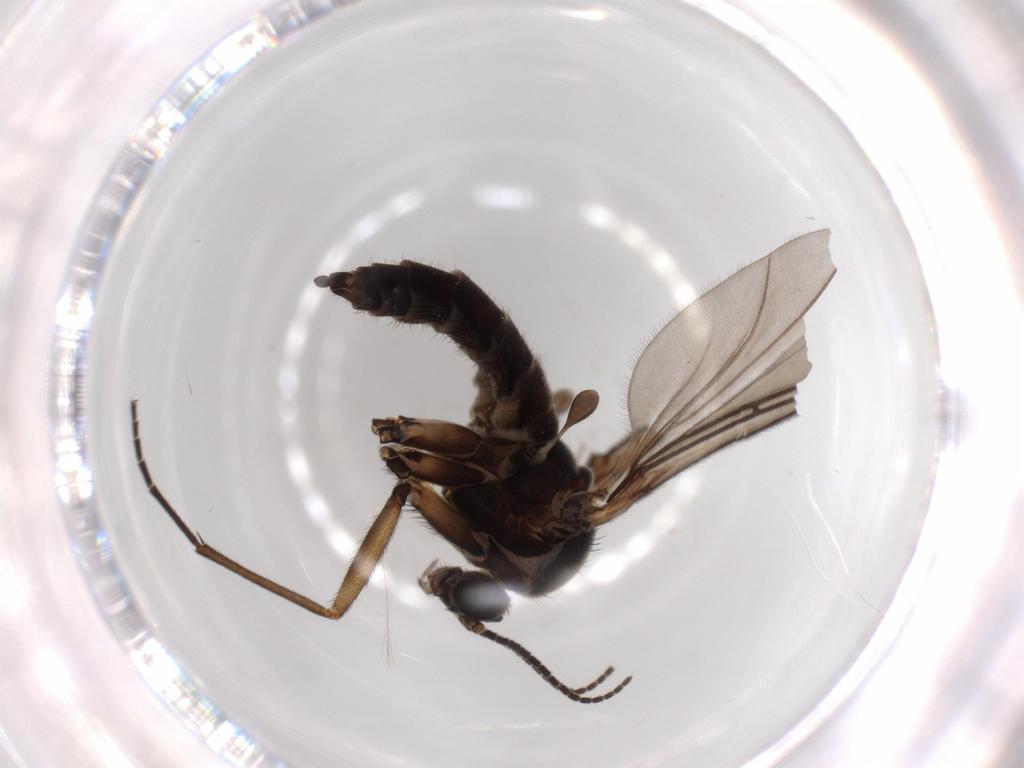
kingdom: Animalia
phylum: Arthropoda
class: Insecta
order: Diptera
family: Sciaridae
